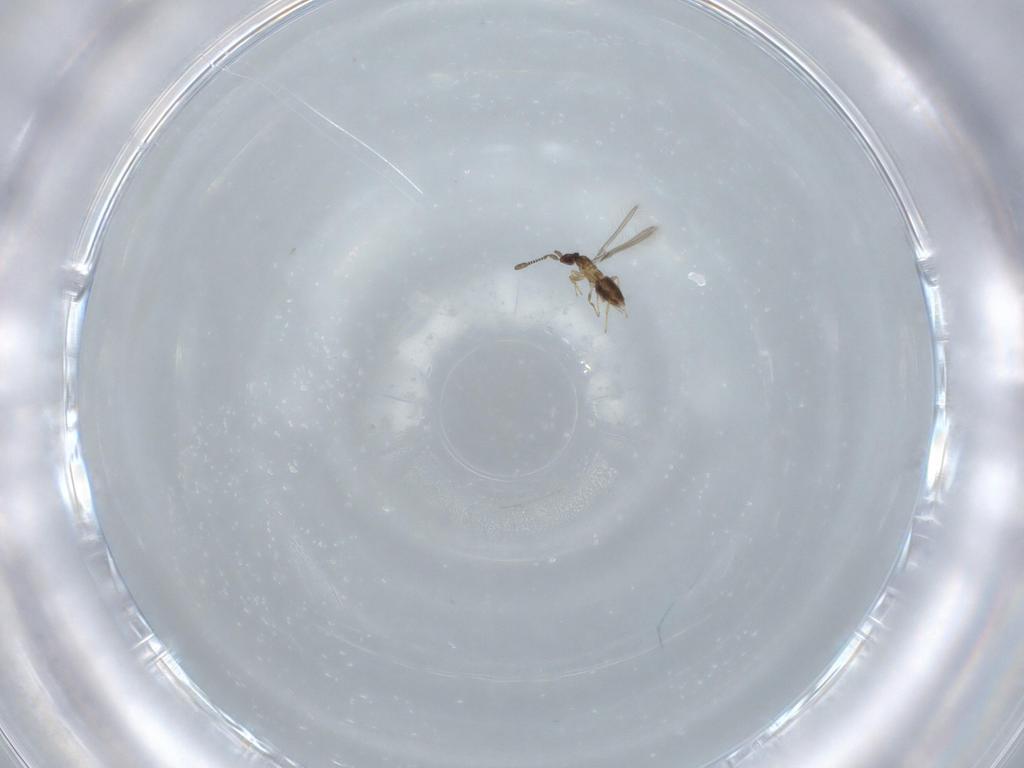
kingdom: Animalia
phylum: Arthropoda
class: Insecta
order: Hymenoptera
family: Mymaridae
